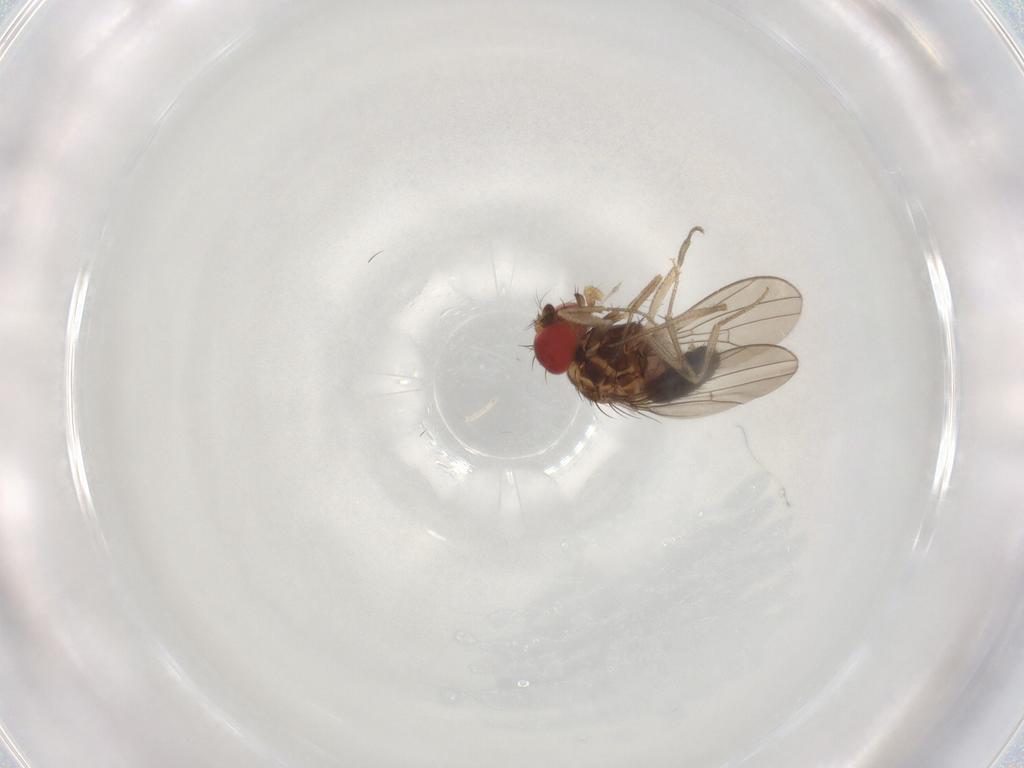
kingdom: Animalia
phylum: Arthropoda
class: Insecta
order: Diptera
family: Drosophilidae
